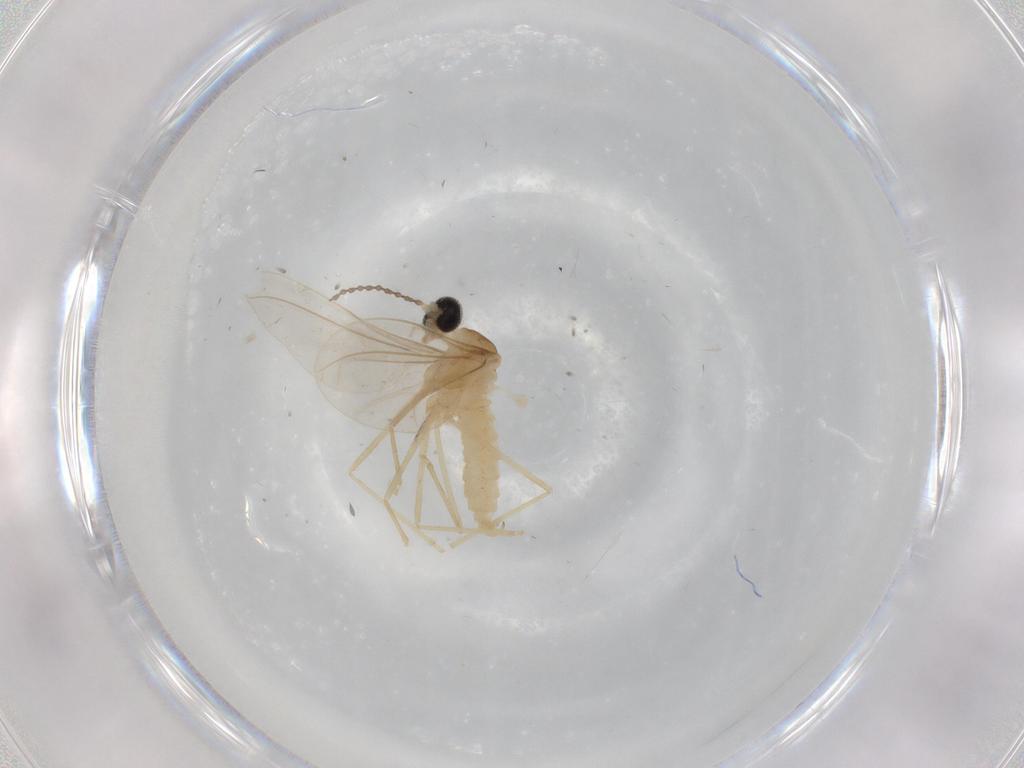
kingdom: Animalia
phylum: Arthropoda
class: Insecta
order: Diptera
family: Cecidomyiidae
